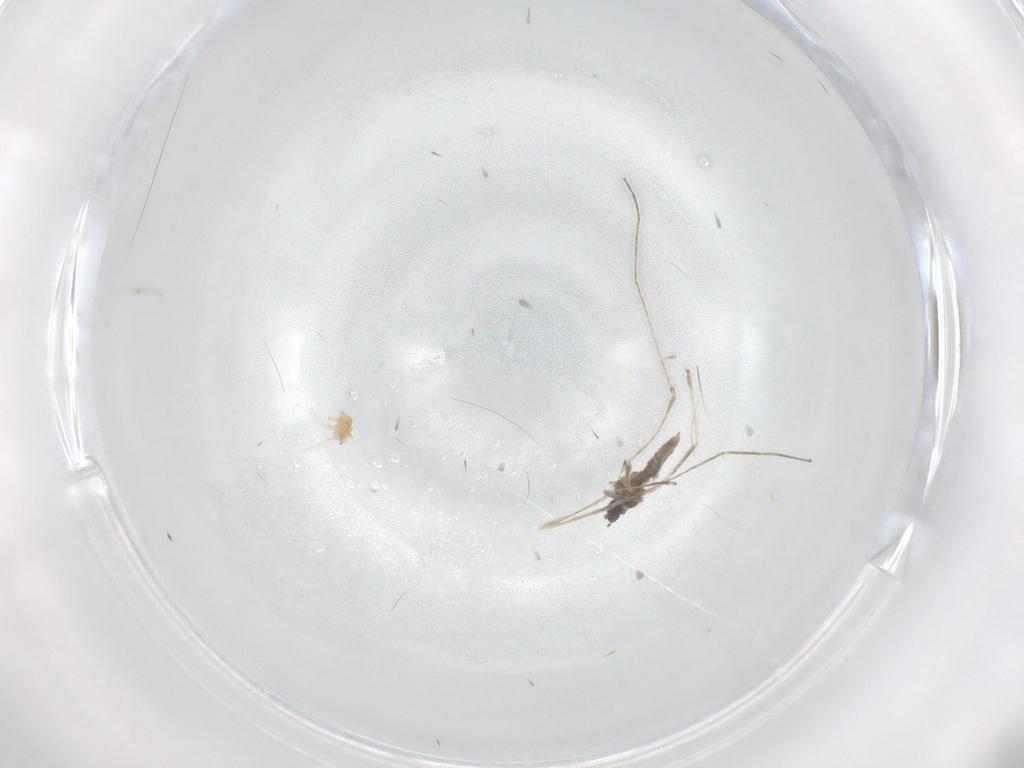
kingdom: Animalia
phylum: Arthropoda
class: Insecta
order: Diptera
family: Cecidomyiidae
